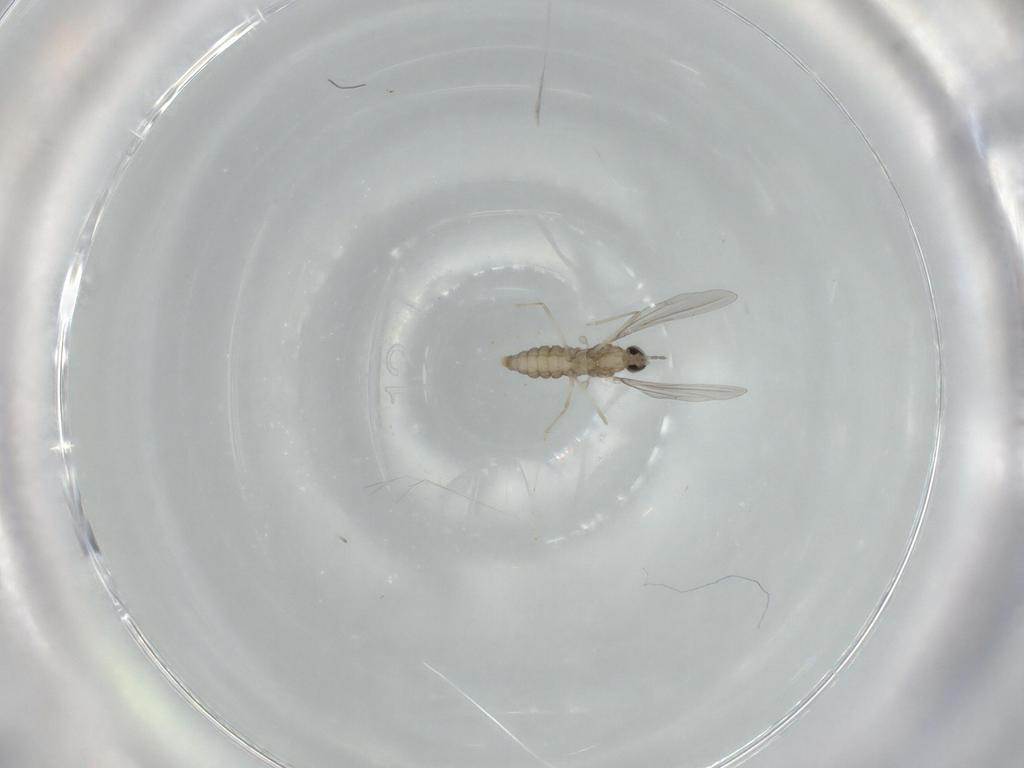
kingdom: Animalia
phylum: Arthropoda
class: Insecta
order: Diptera
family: Cecidomyiidae
